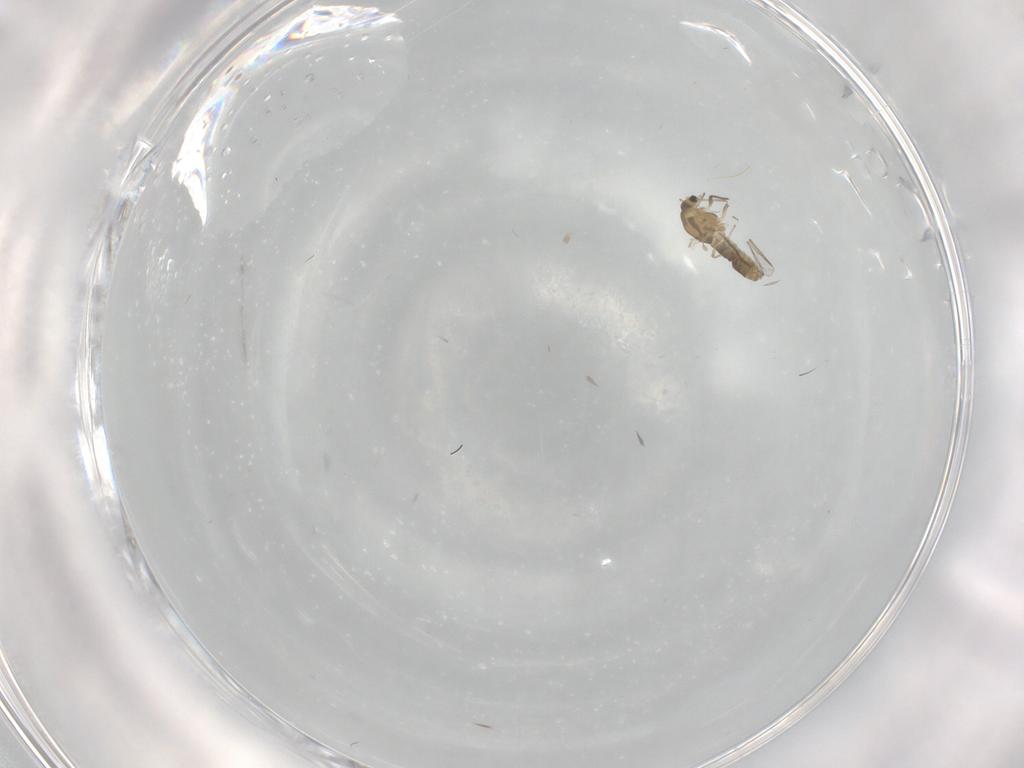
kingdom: Animalia
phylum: Arthropoda
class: Insecta
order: Diptera
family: Chironomidae
